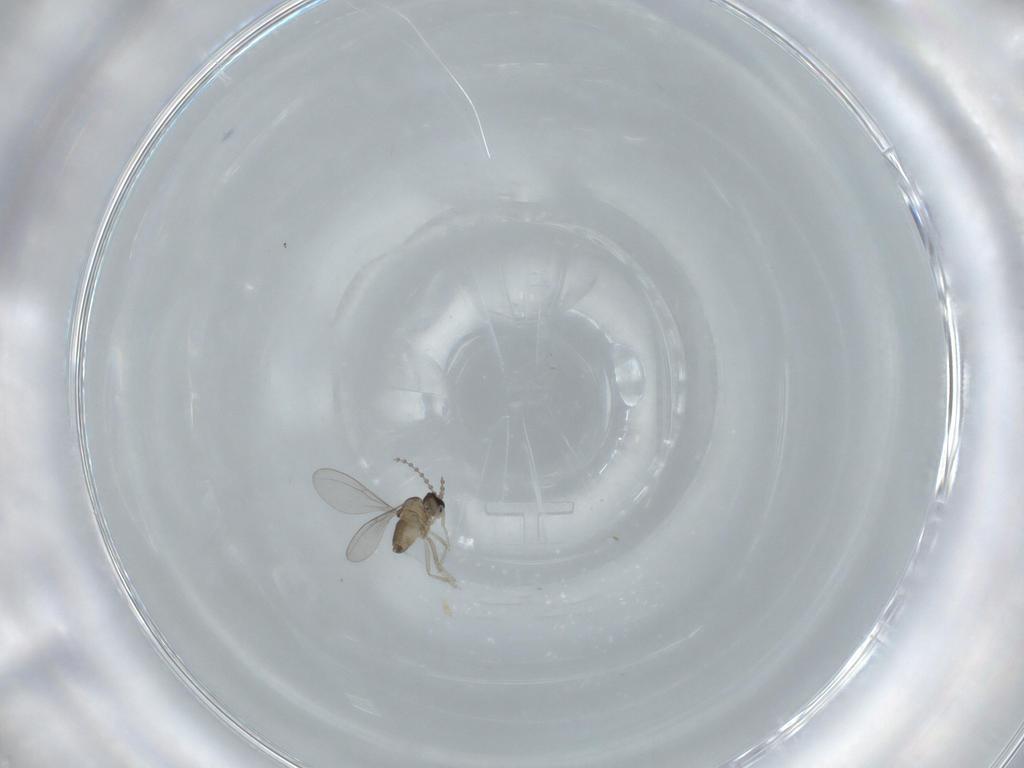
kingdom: Animalia
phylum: Arthropoda
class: Insecta
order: Diptera
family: Cecidomyiidae
